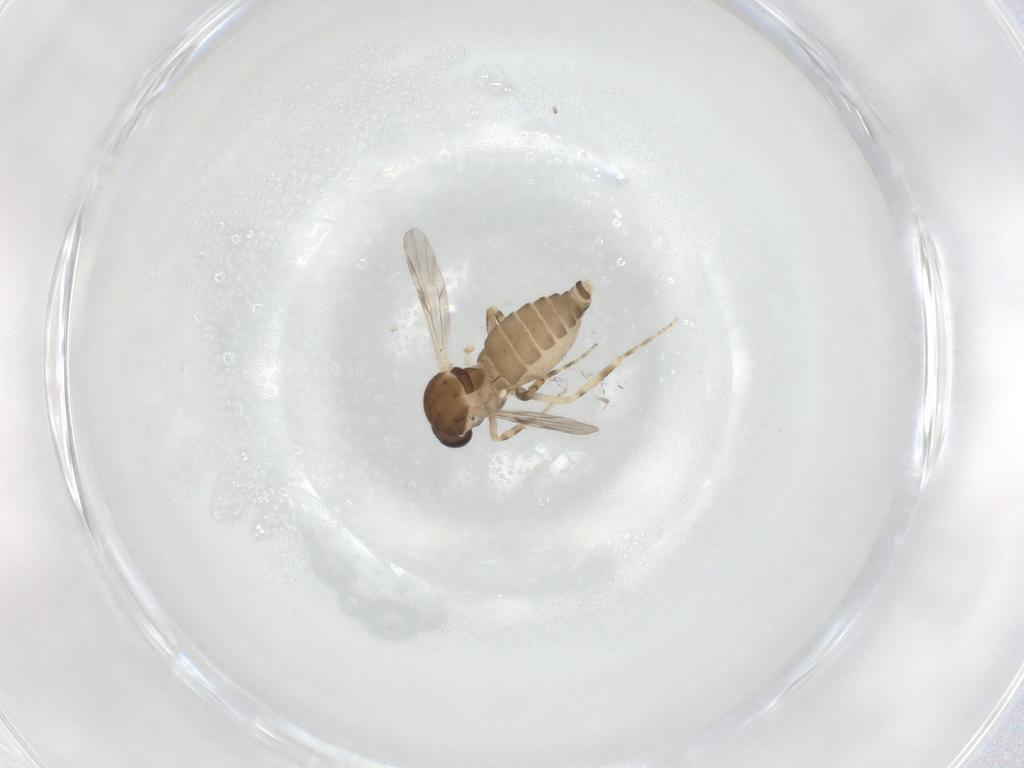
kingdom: Animalia
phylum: Arthropoda
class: Insecta
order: Diptera
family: Ceratopogonidae
